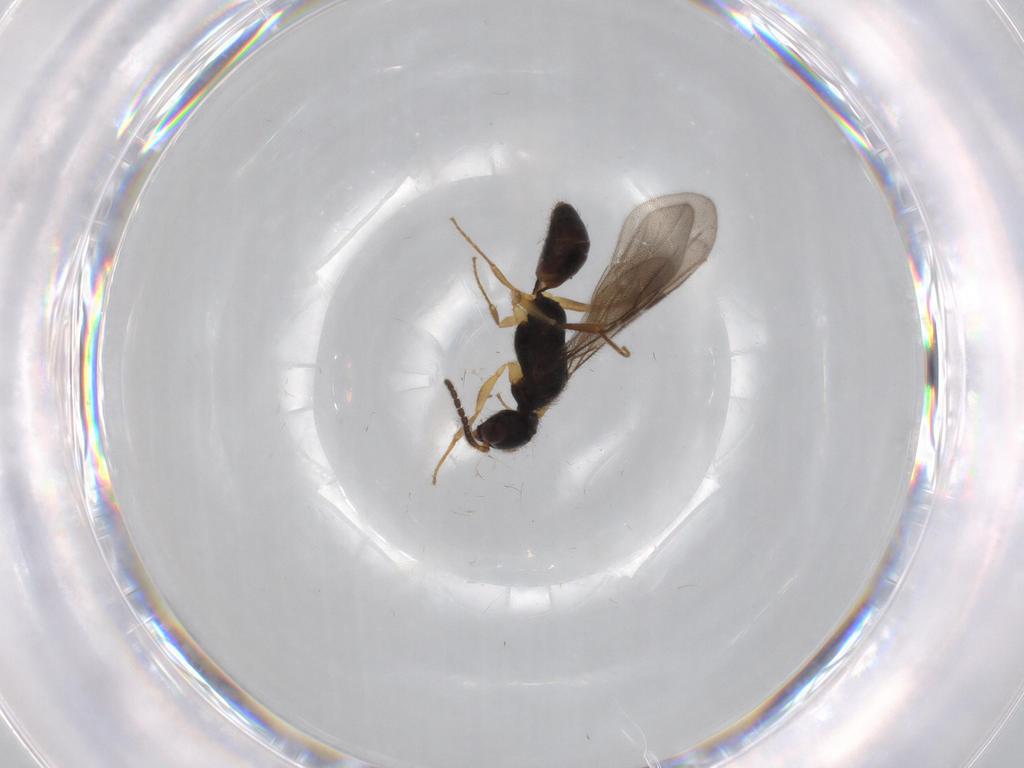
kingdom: Animalia
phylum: Arthropoda
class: Insecta
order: Hymenoptera
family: Bethylidae
